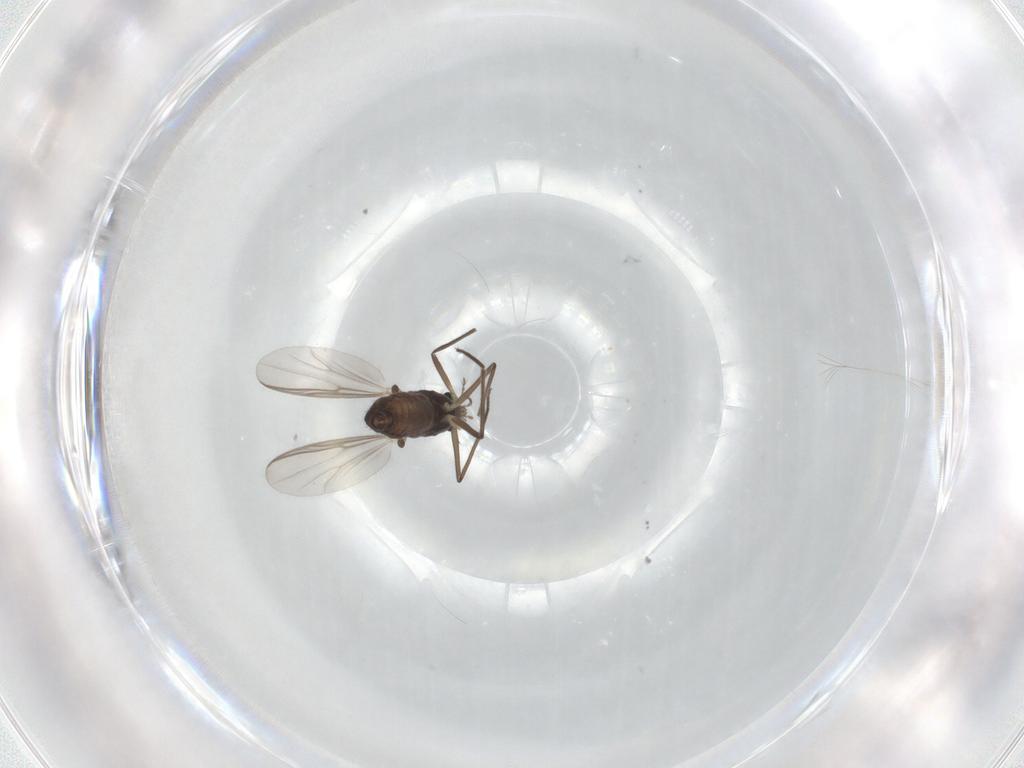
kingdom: Animalia
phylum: Arthropoda
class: Insecta
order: Diptera
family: Chironomidae
